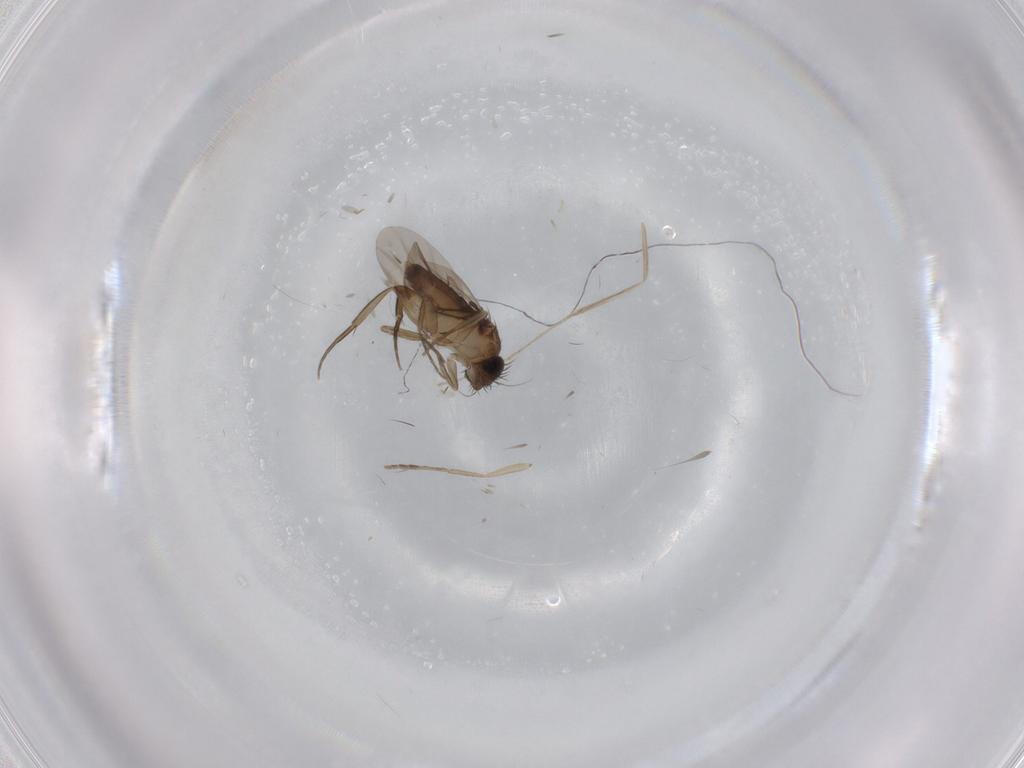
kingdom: Animalia
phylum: Arthropoda
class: Insecta
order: Diptera
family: Phoridae
